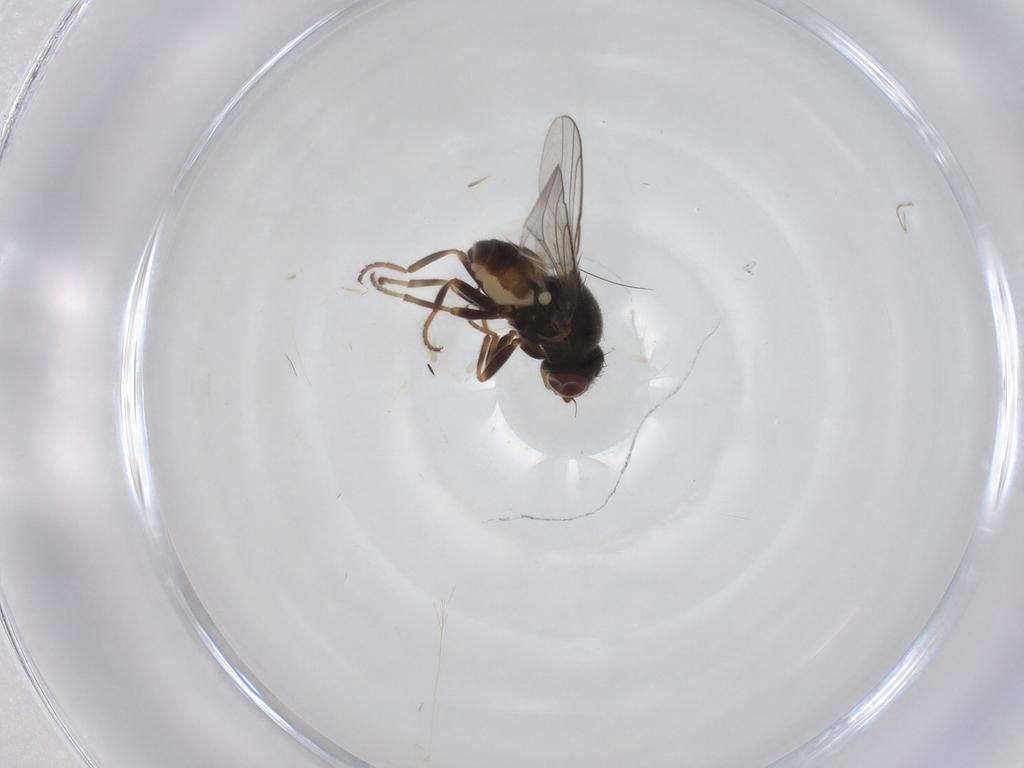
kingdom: Animalia
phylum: Arthropoda
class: Insecta
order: Diptera
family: Chloropidae
